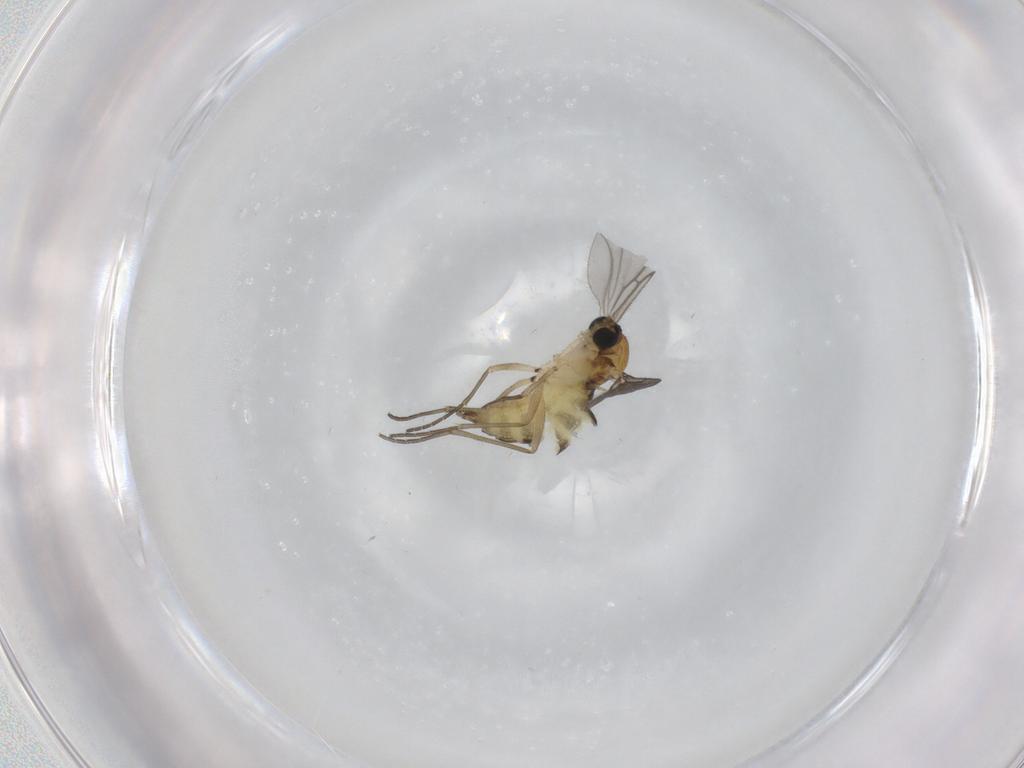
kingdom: Animalia
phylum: Arthropoda
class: Insecta
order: Diptera
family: Sciaridae
